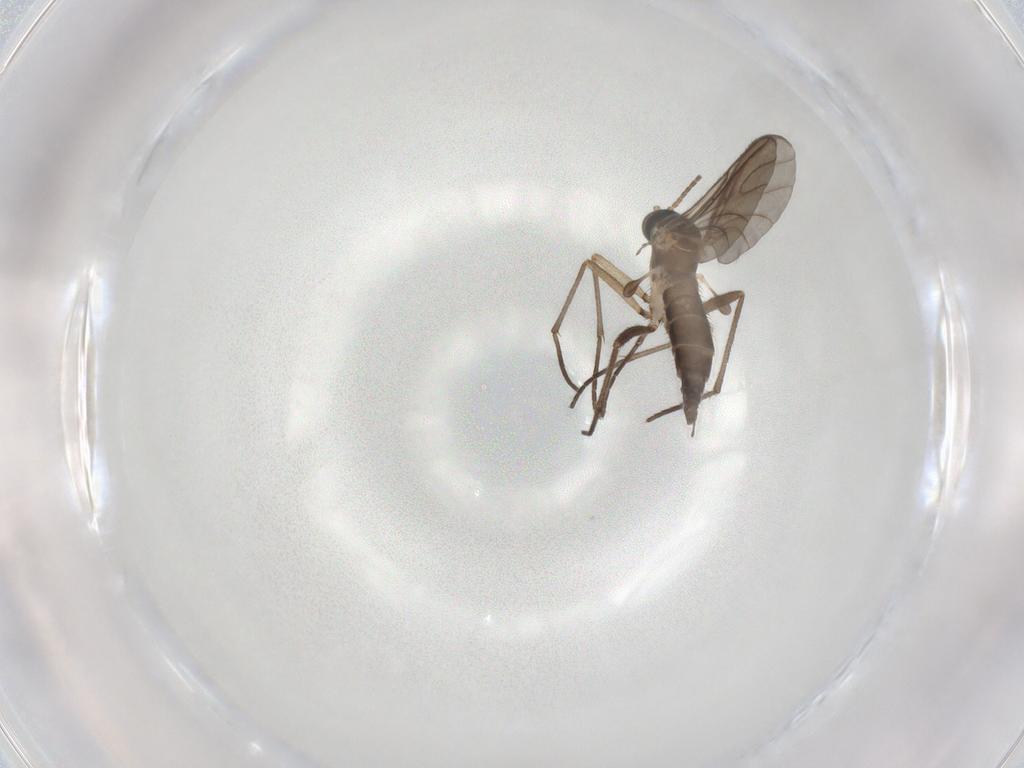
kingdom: Animalia
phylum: Arthropoda
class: Insecta
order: Diptera
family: Sciaridae
